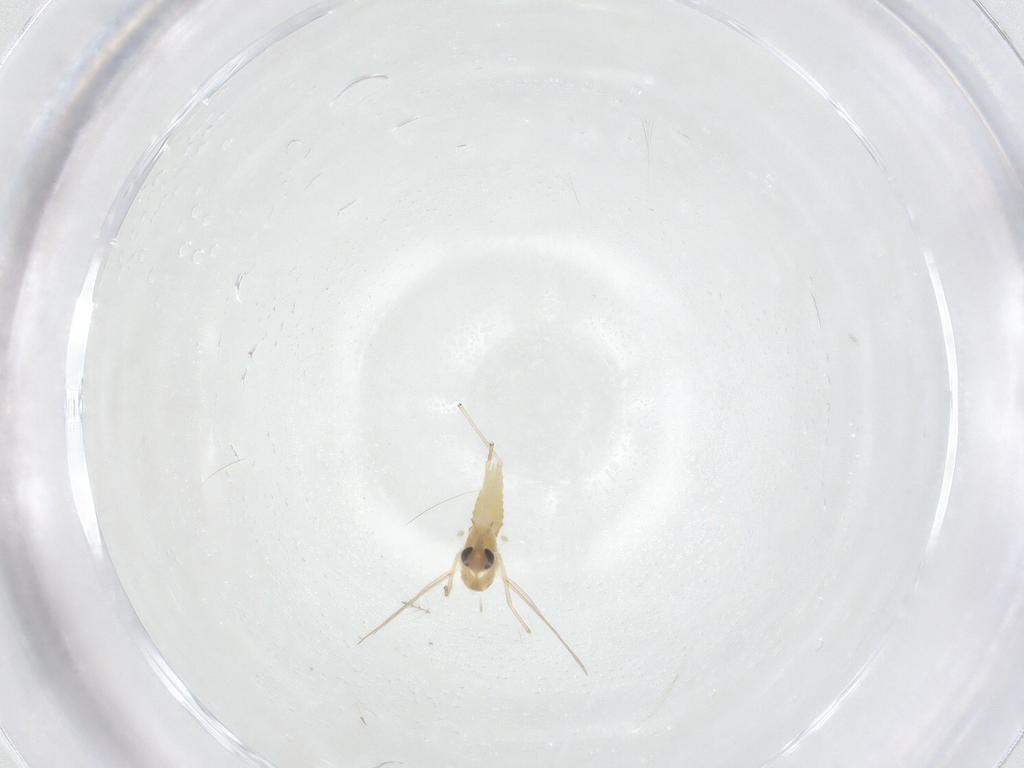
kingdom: Animalia
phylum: Arthropoda
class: Insecta
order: Diptera
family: Chironomidae
